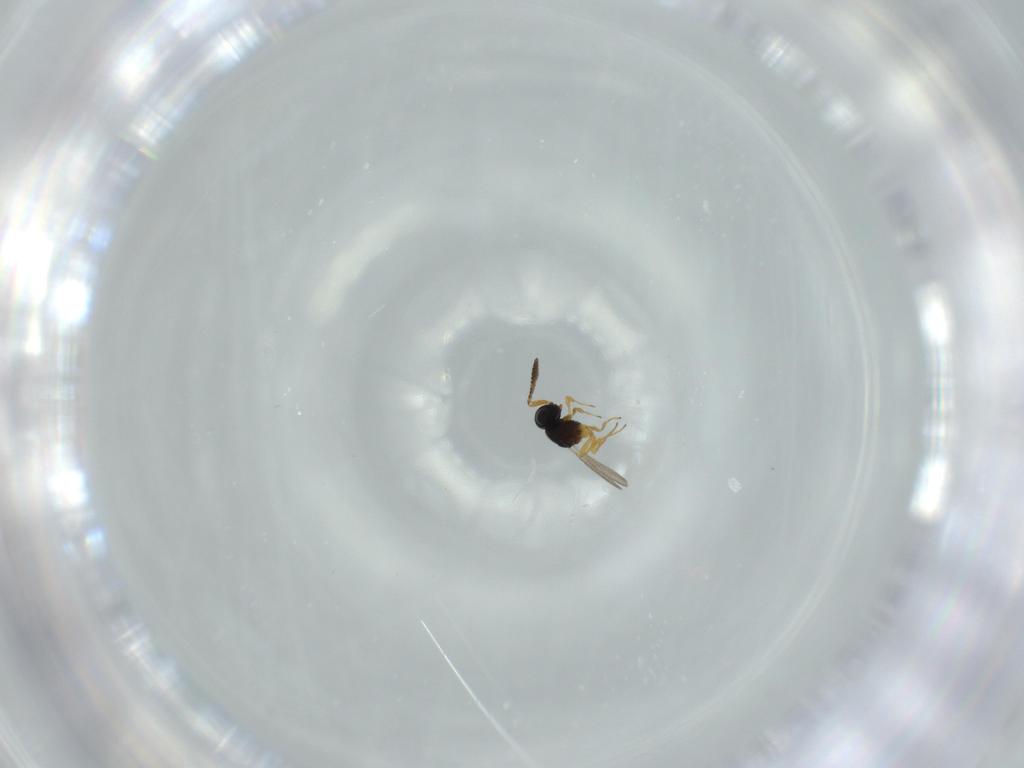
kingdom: Animalia
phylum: Arthropoda
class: Insecta
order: Hymenoptera
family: Scelionidae
